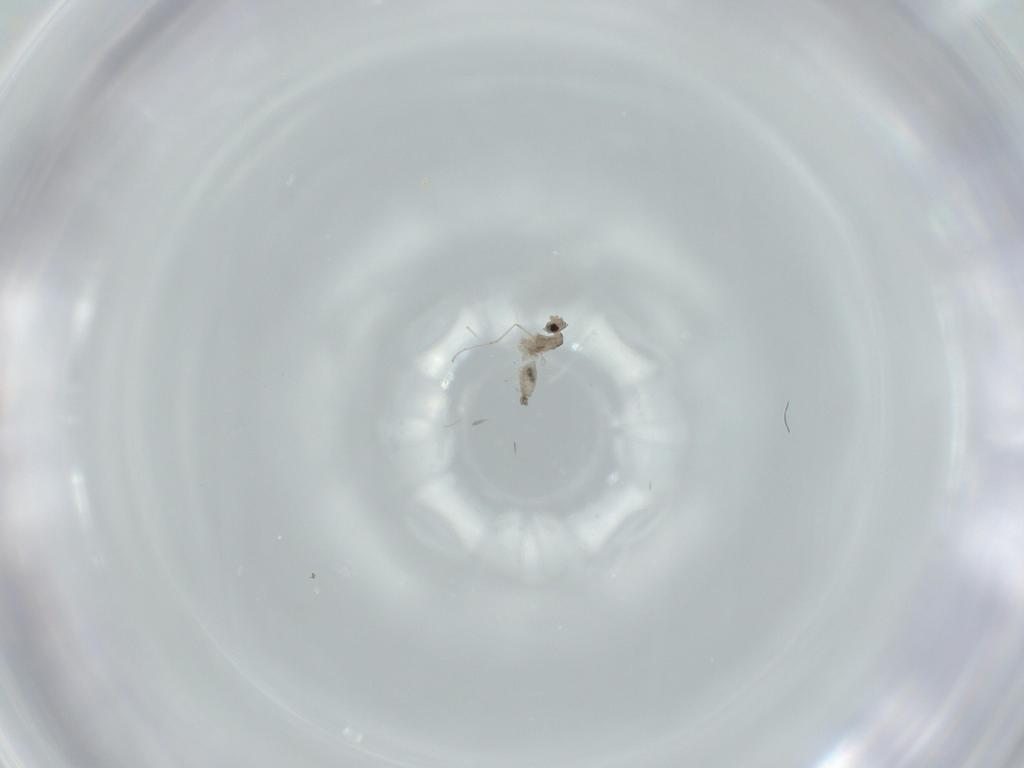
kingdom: Animalia
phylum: Arthropoda
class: Insecta
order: Diptera
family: Cecidomyiidae
